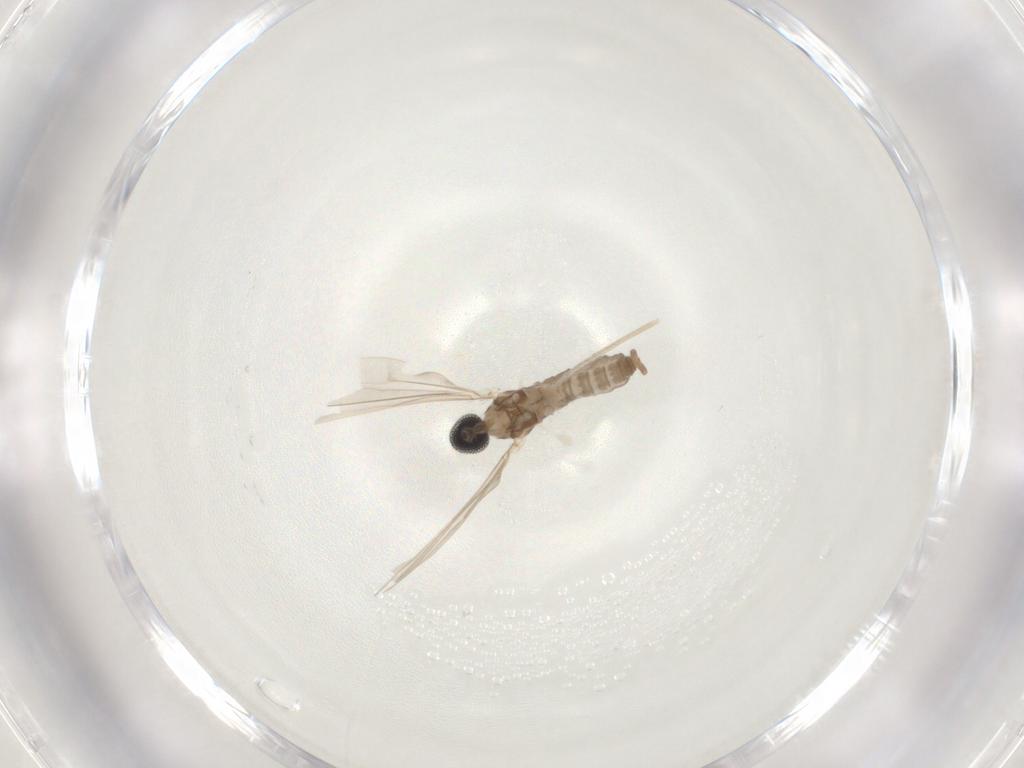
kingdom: Animalia
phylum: Arthropoda
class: Insecta
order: Diptera
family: Cecidomyiidae
